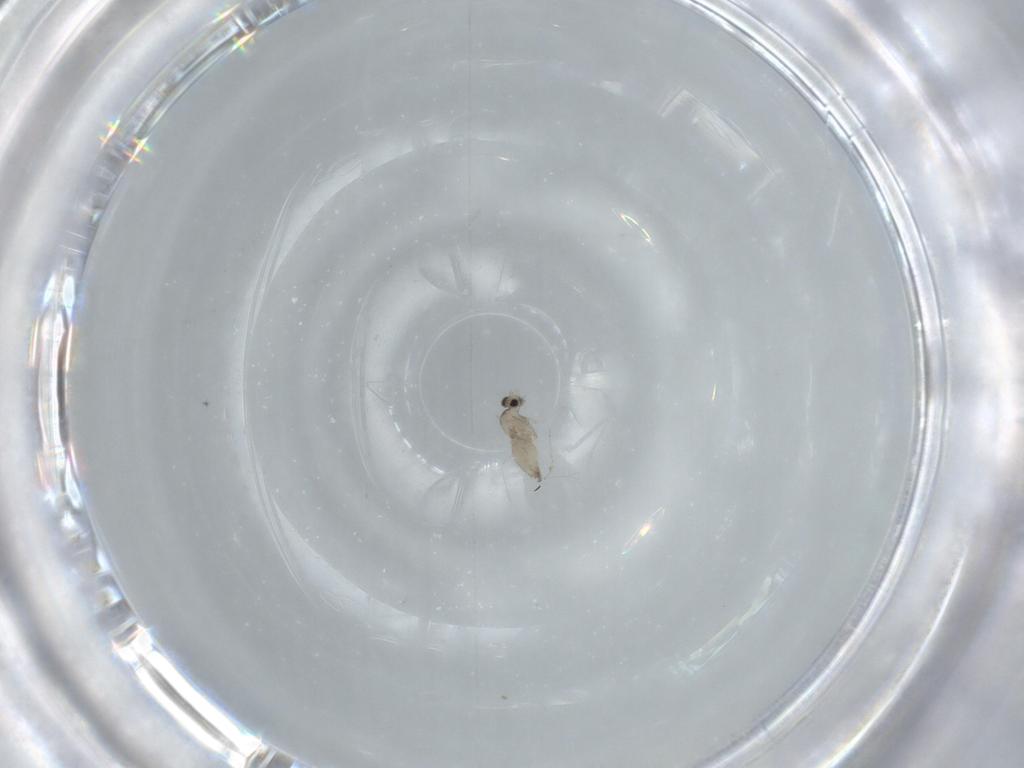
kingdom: Animalia
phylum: Arthropoda
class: Insecta
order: Diptera
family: Cecidomyiidae
